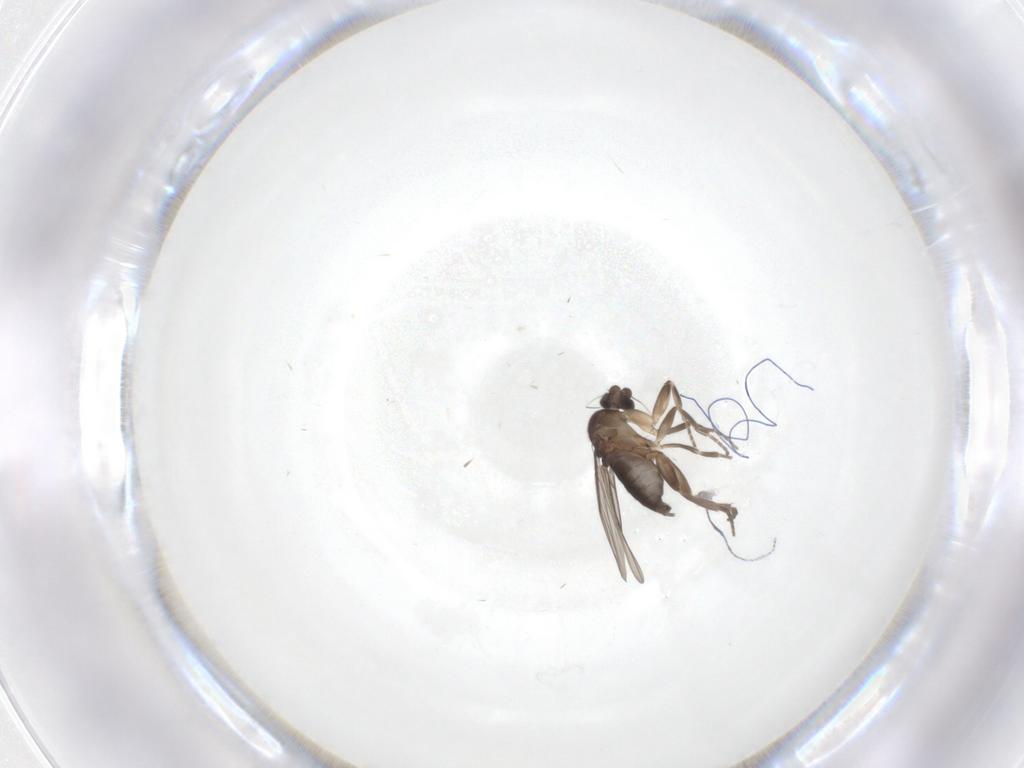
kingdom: Animalia
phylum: Arthropoda
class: Insecta
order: Diptera
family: Phoridae
